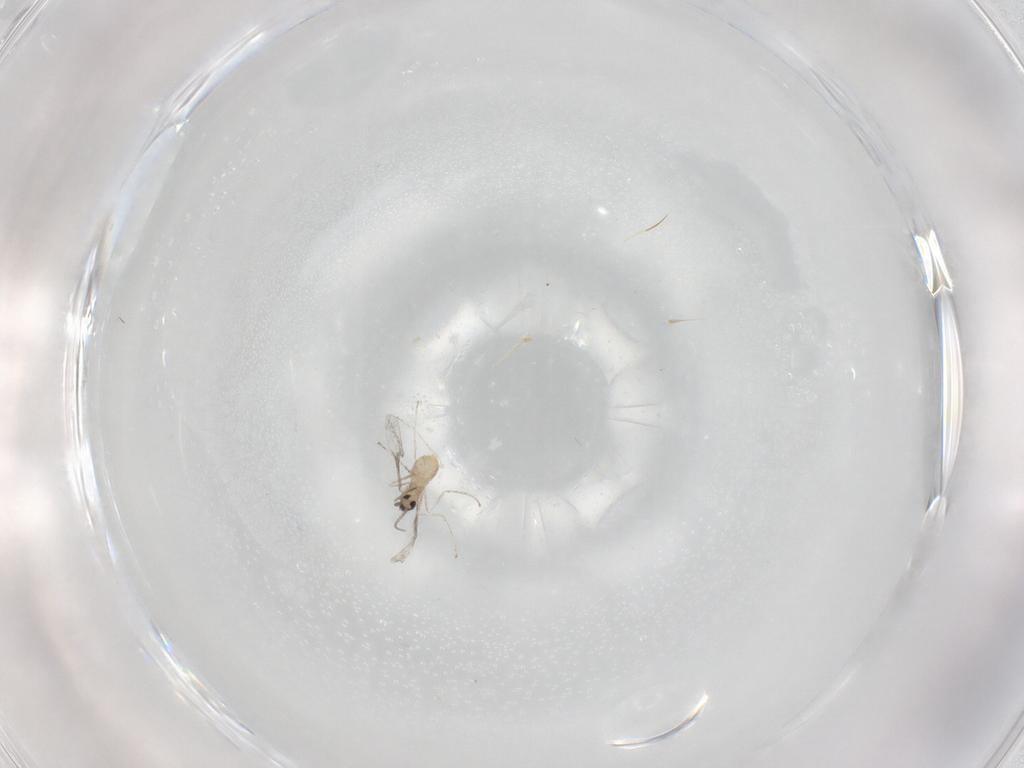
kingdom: Animalia
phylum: Arthropoda
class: Insecta
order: Diptera
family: Cecidomyiidae
